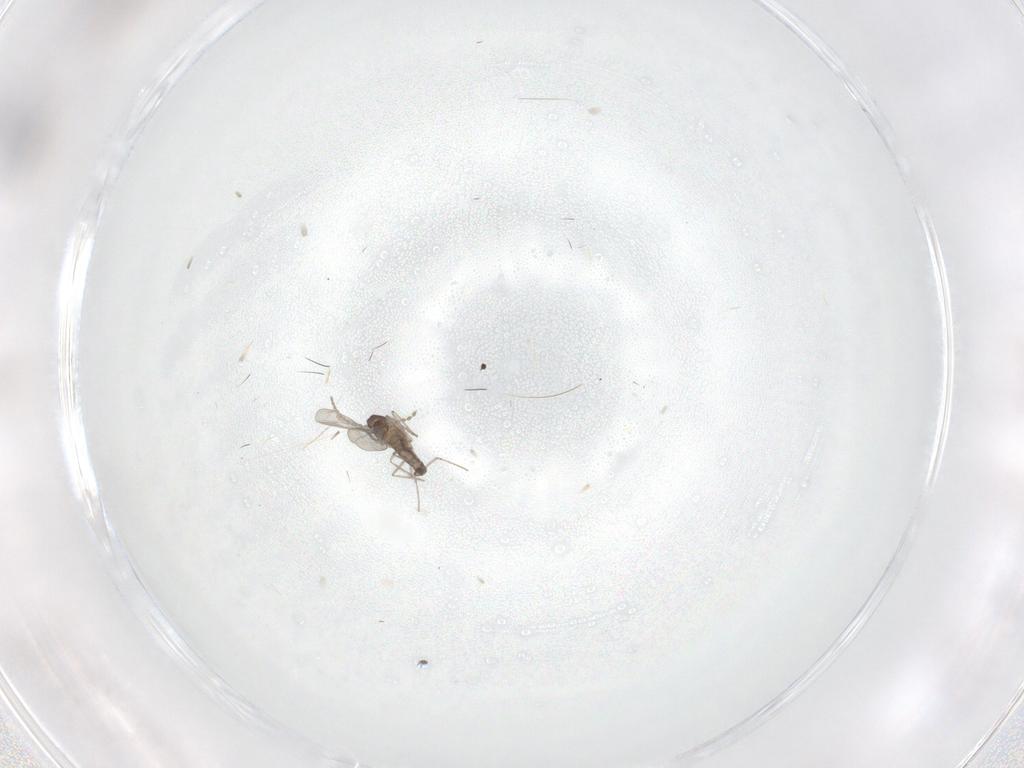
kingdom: Animalia
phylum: Arthropoda
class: Insecta
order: Diptera
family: Cecidomyiidae
